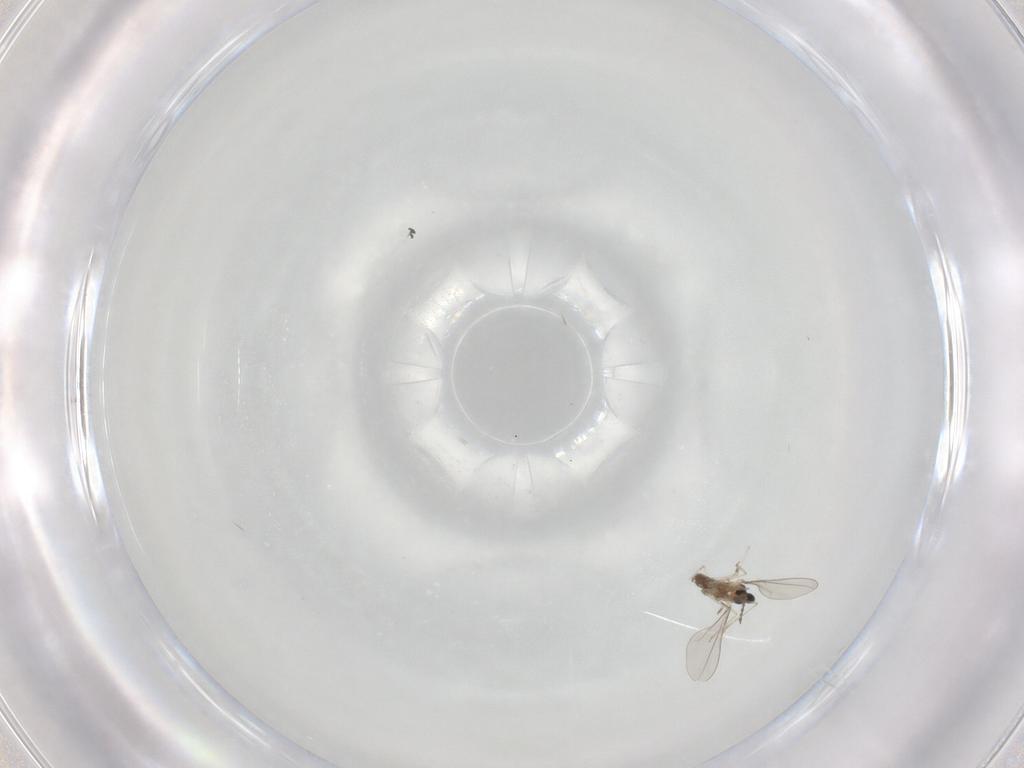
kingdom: Animalia
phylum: Arthropoda
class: Insecta
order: Diptera
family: Cecidomyiidae
